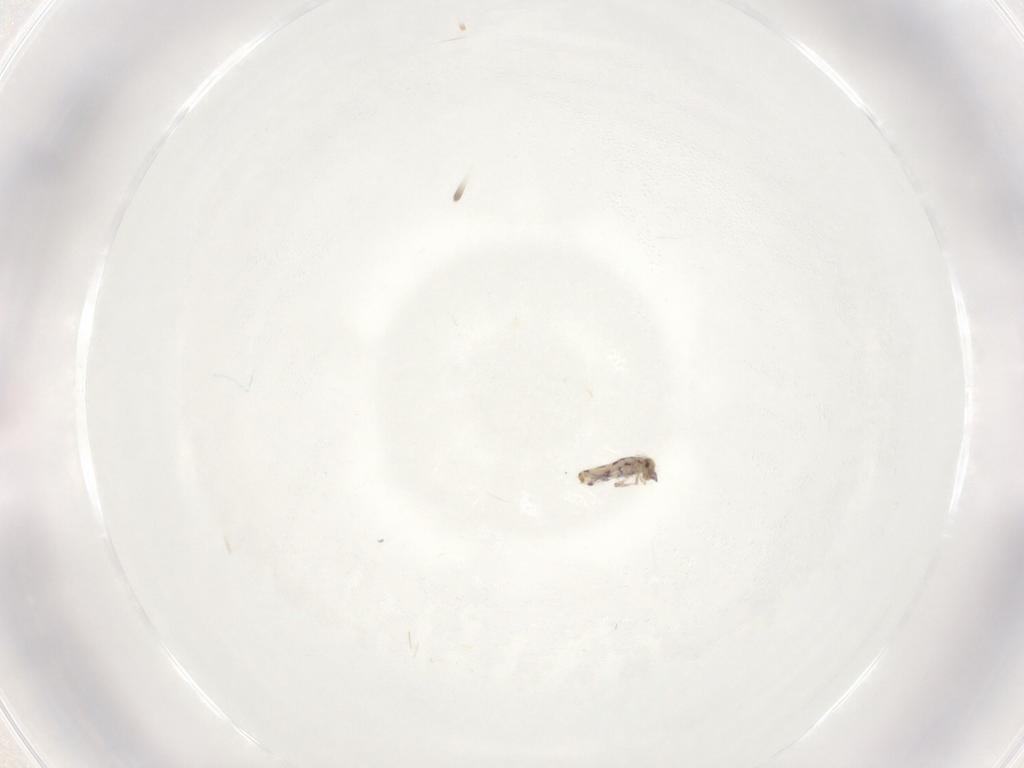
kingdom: Animalia
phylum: Arthropoda
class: Collembola
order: Entomobryomorpha
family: Entomobryidae
